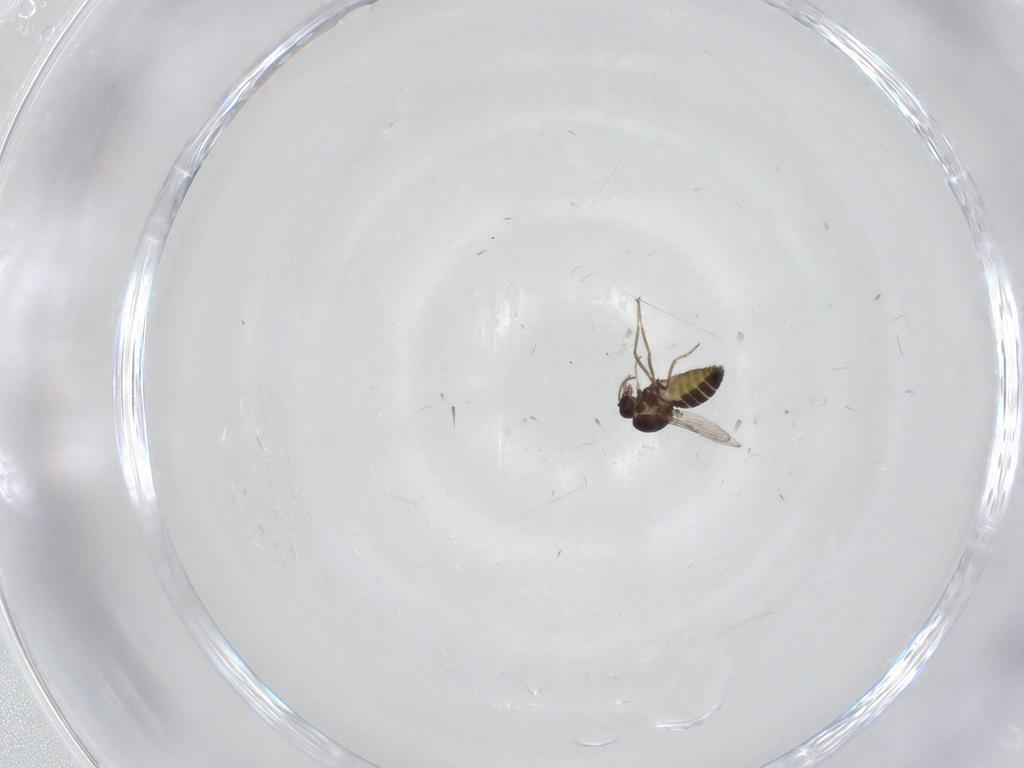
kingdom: Animalia
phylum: Arthropoda
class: Insecta
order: Diptera
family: Ceratopogonidae
